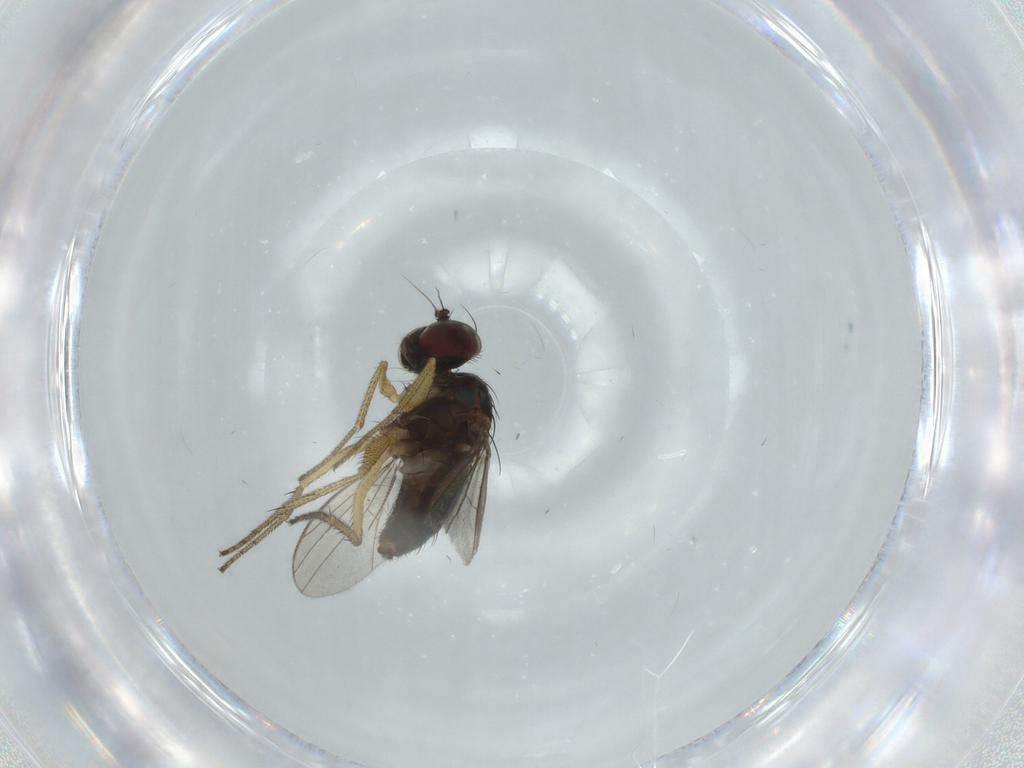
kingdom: Animalia
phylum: Arthropoda
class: Insecta
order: Diptera
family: Dolichopodidae
